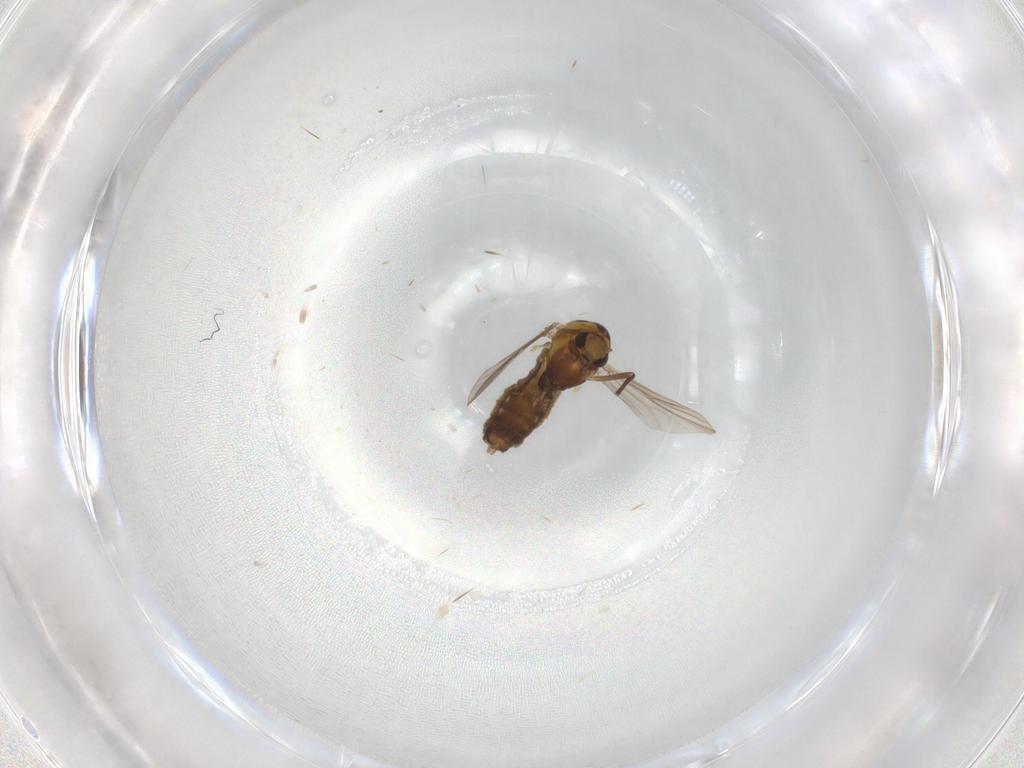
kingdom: Animalia
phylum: Arthropoda
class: Insecta
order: Diptera
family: Chironomidae
